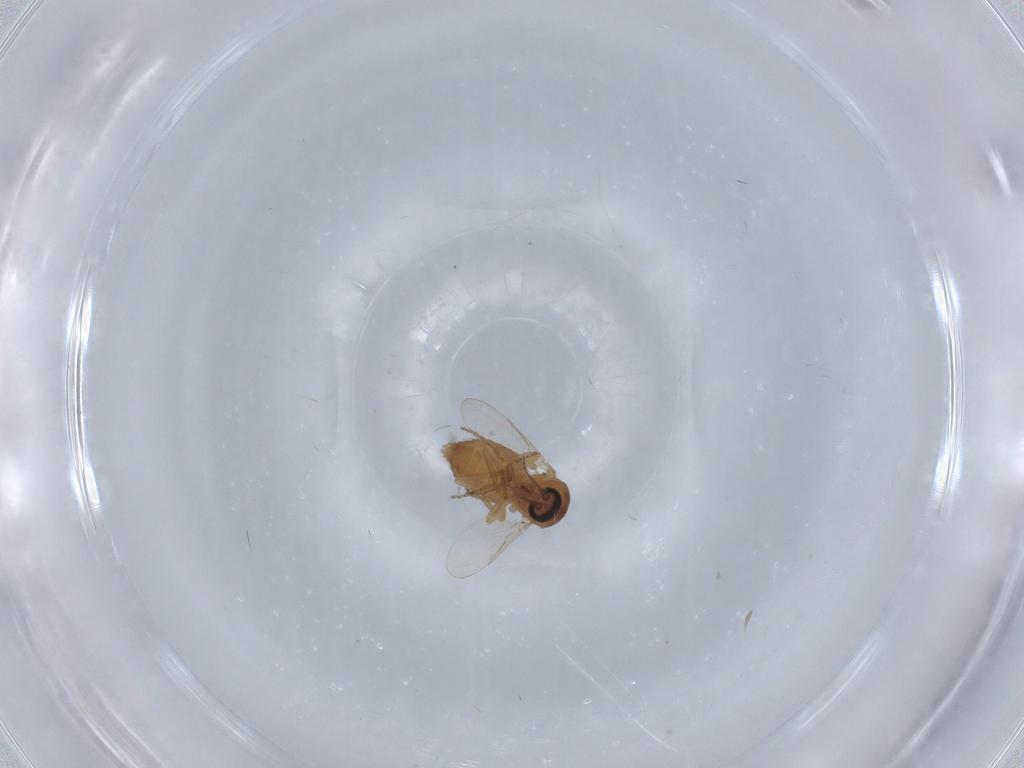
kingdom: Animalia
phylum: Arthropoda
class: Insecta
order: Diptera
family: Ceratopogonidae
